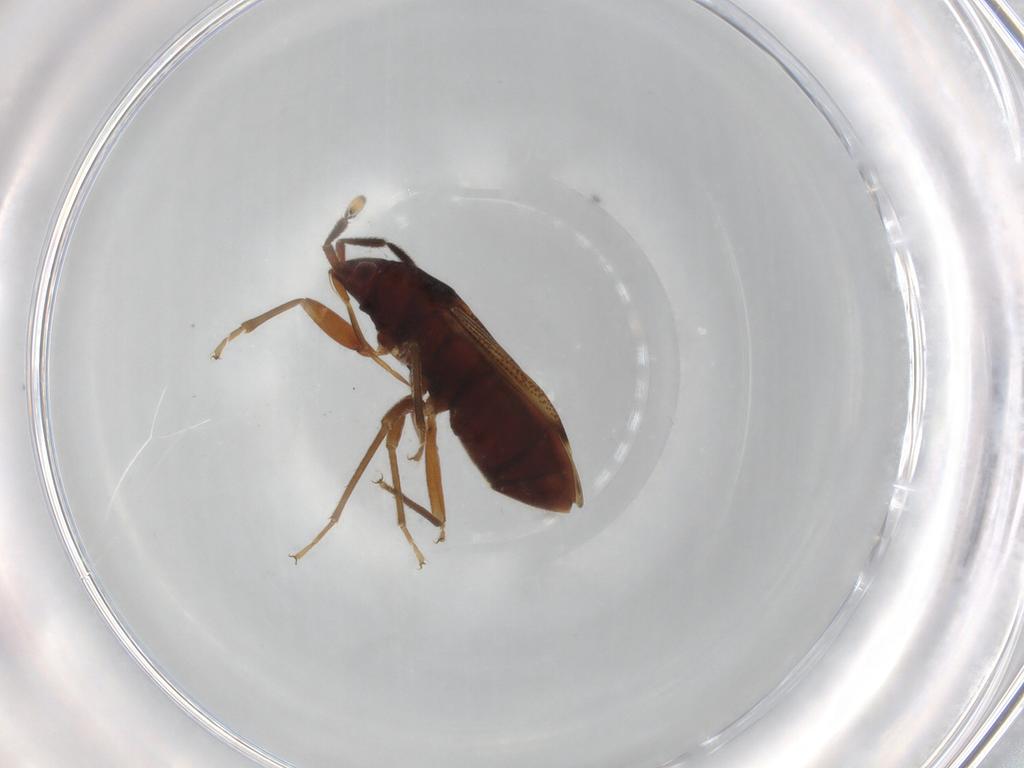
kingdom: Animalia
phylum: Arthropoda
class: Insecta
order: Hemiptera
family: Rhyparochromidae
